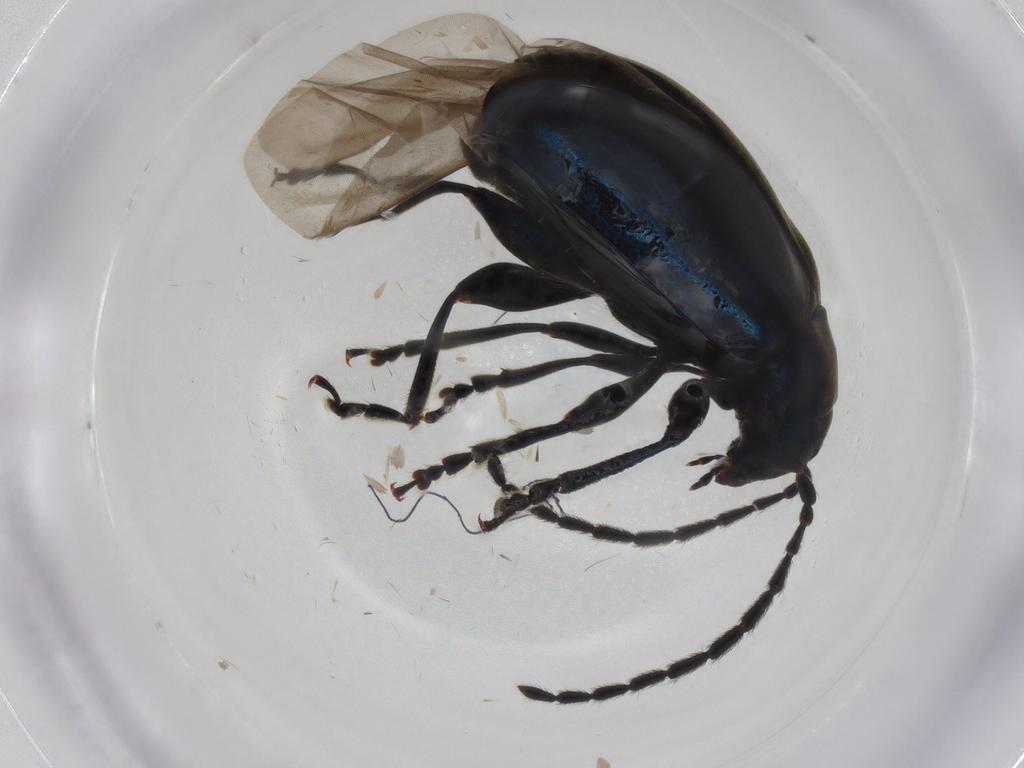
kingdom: Animalia
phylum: Arthropoda
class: Insecta
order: Coleoptera
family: Chrysomelidae
